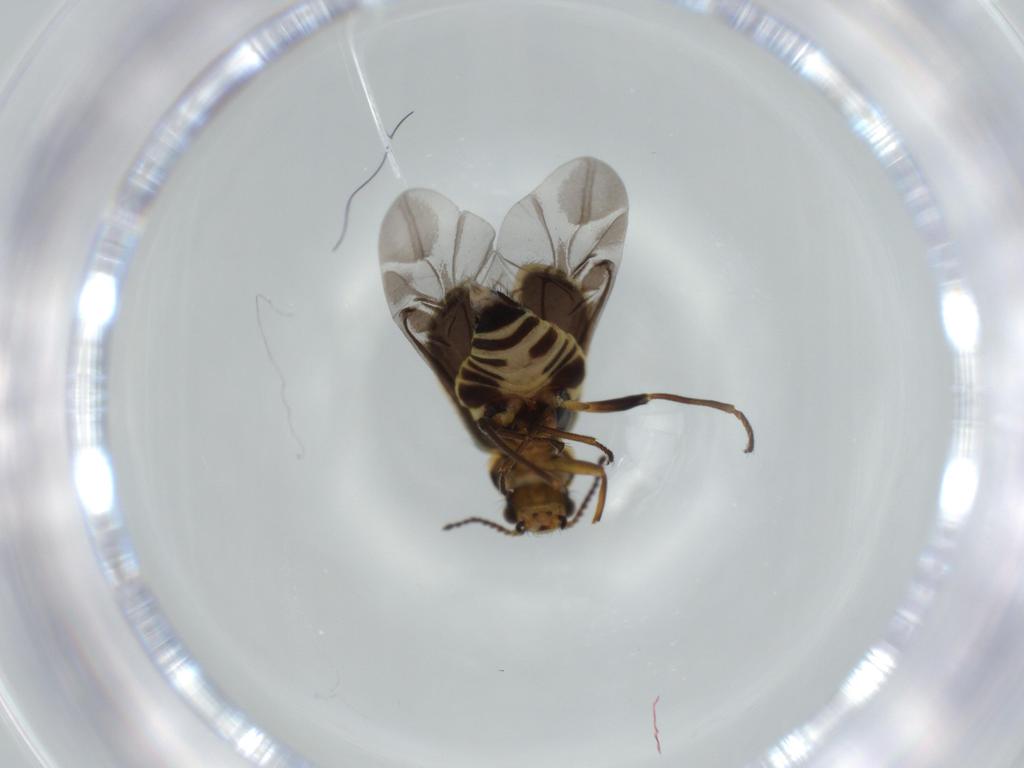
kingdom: Animalia
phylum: Arthropoda
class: Insecta
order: Coleoptera
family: Melyridae
